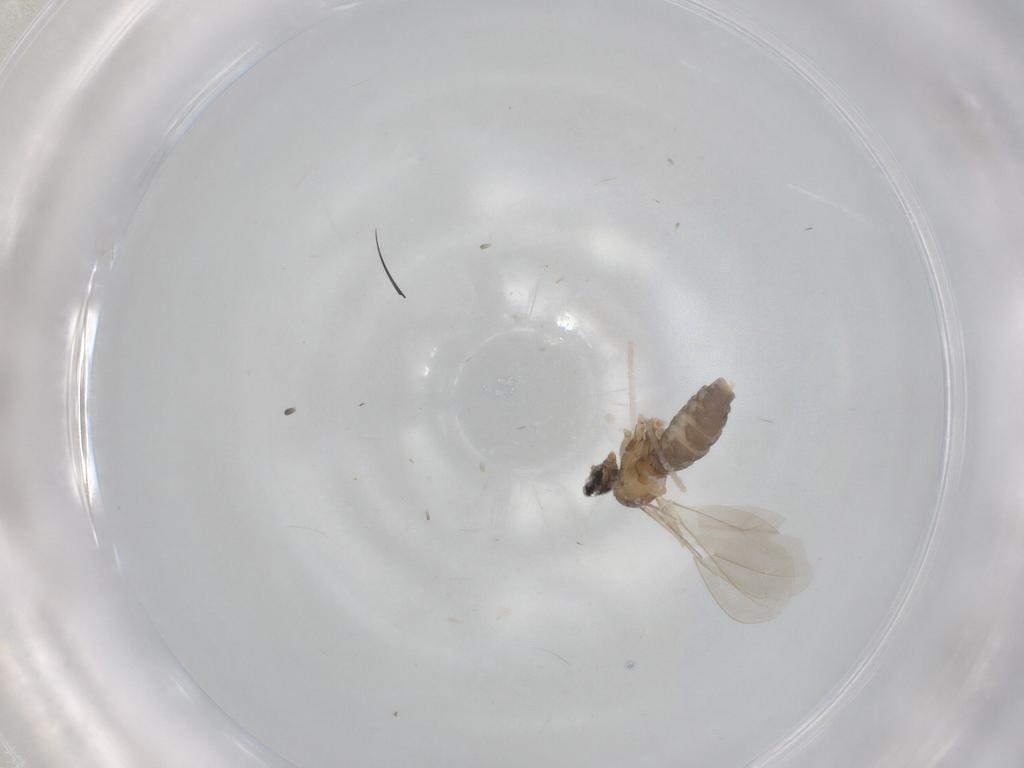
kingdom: Animalia
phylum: Arthropoda
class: Insecta
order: Diptera
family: Cecidomyiidae
